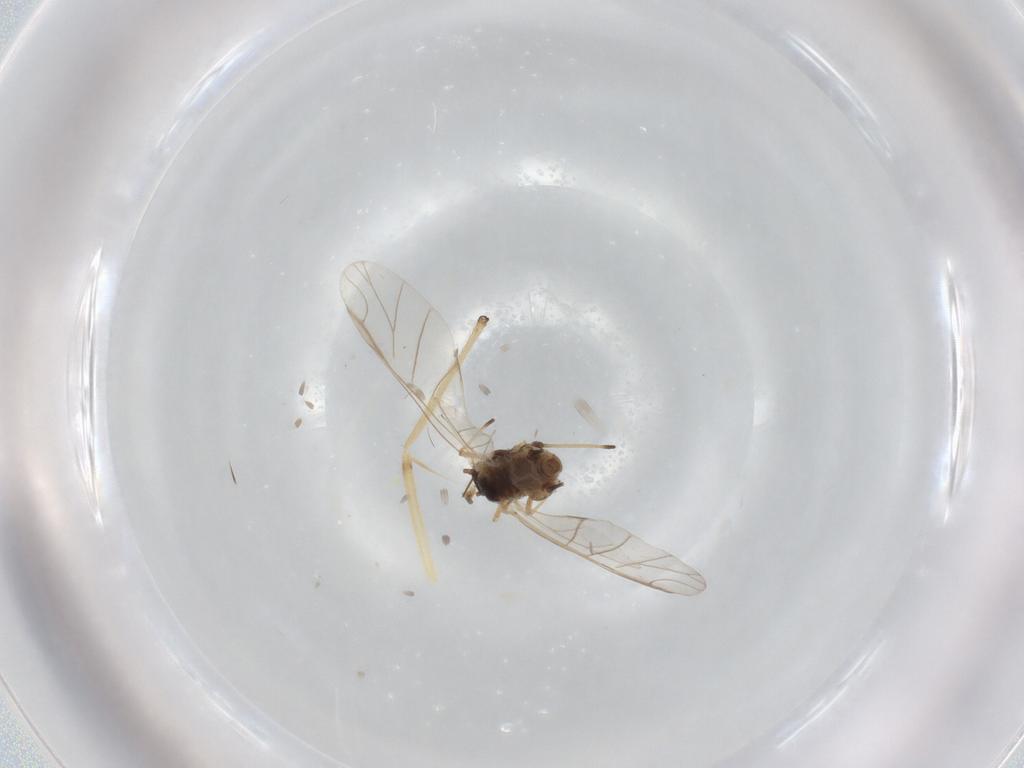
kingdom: Animalia
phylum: Arthropoda
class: Insecta
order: Hemiptera
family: Aphididae
